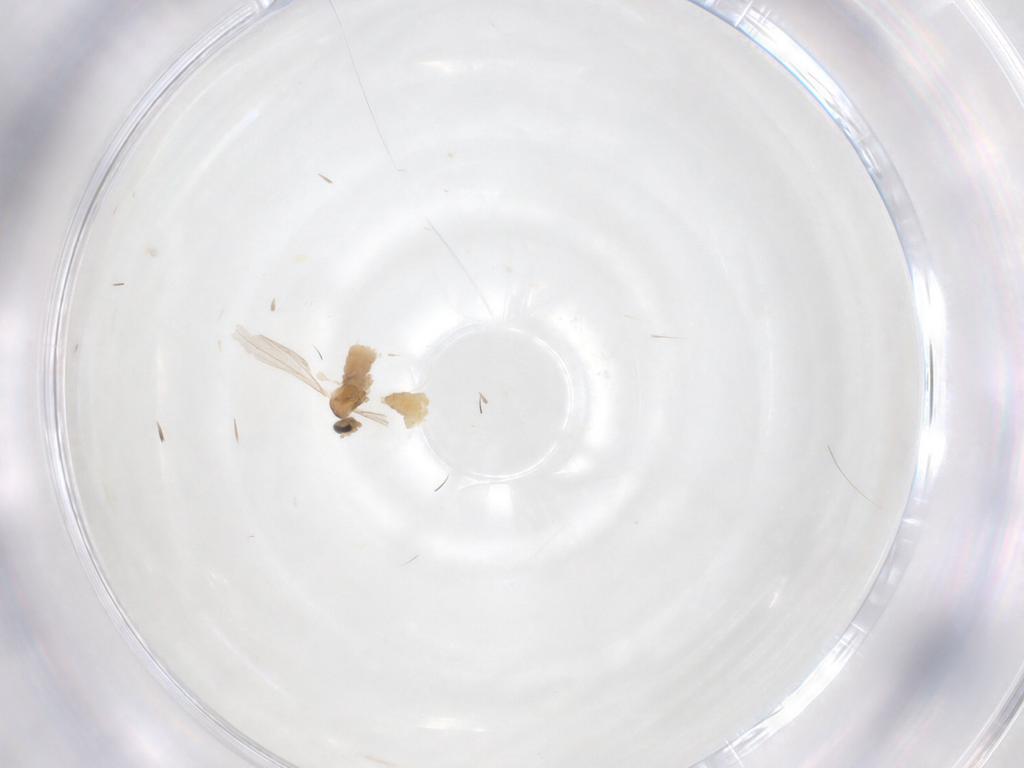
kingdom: Animalia
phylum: Arthropoda
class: Insecta
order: Diptera
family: Cecidomyiidae
